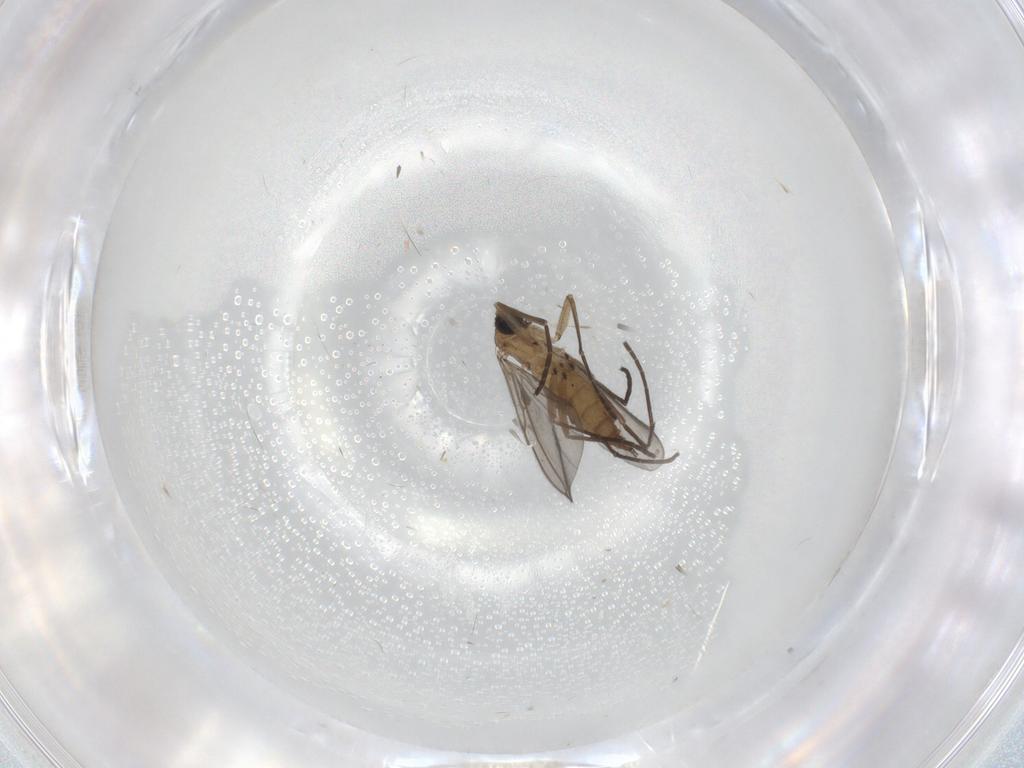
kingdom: Animalia
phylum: Arthropoda
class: Insecta
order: Diptera
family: Sciaridae
